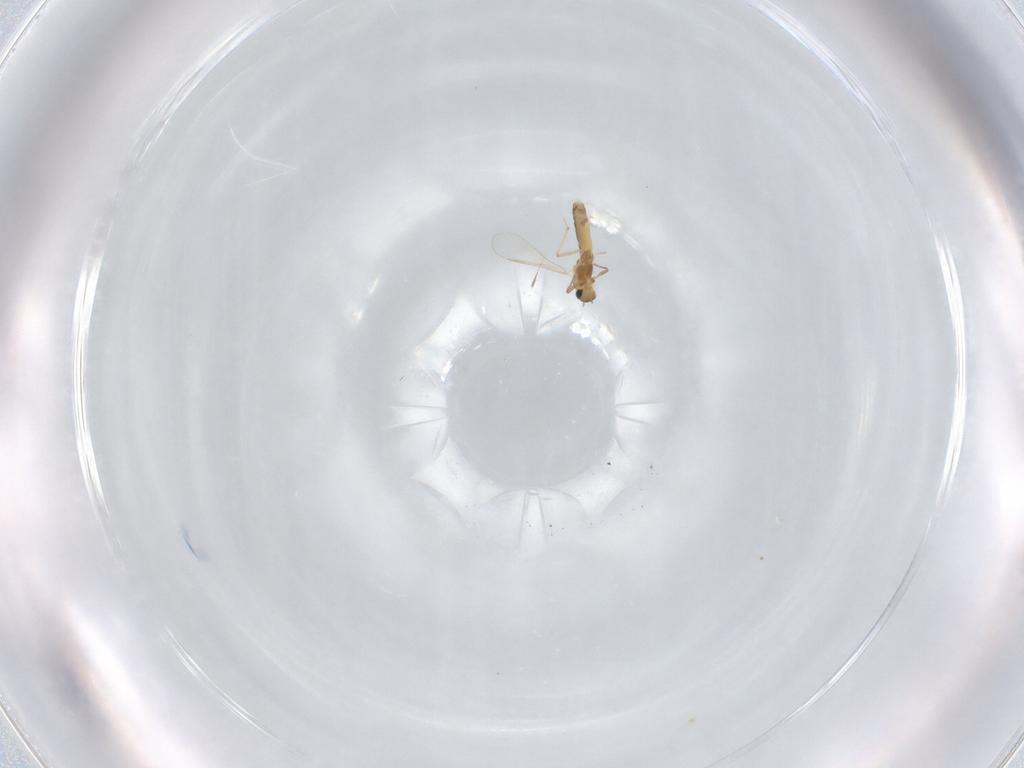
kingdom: Animalia
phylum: Arthropoda
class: Insecta
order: Diptera
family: Chironomidae
